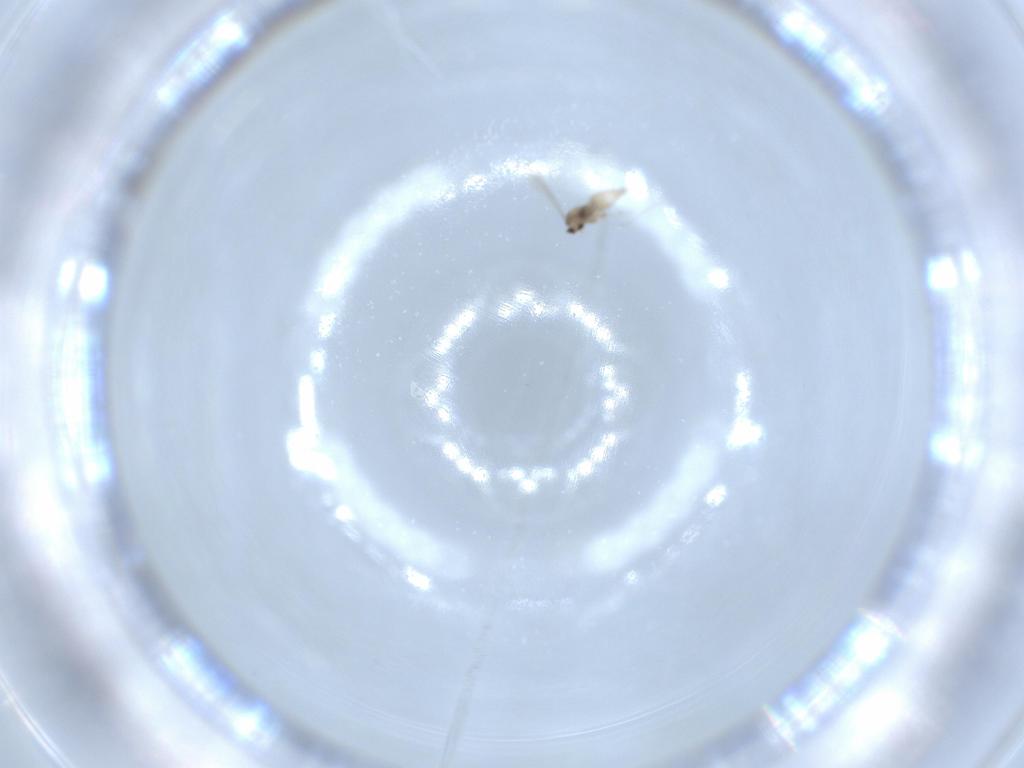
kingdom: Animalia
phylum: Arthropoda
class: Insecta
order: Diptera
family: Cecidomyiidae
